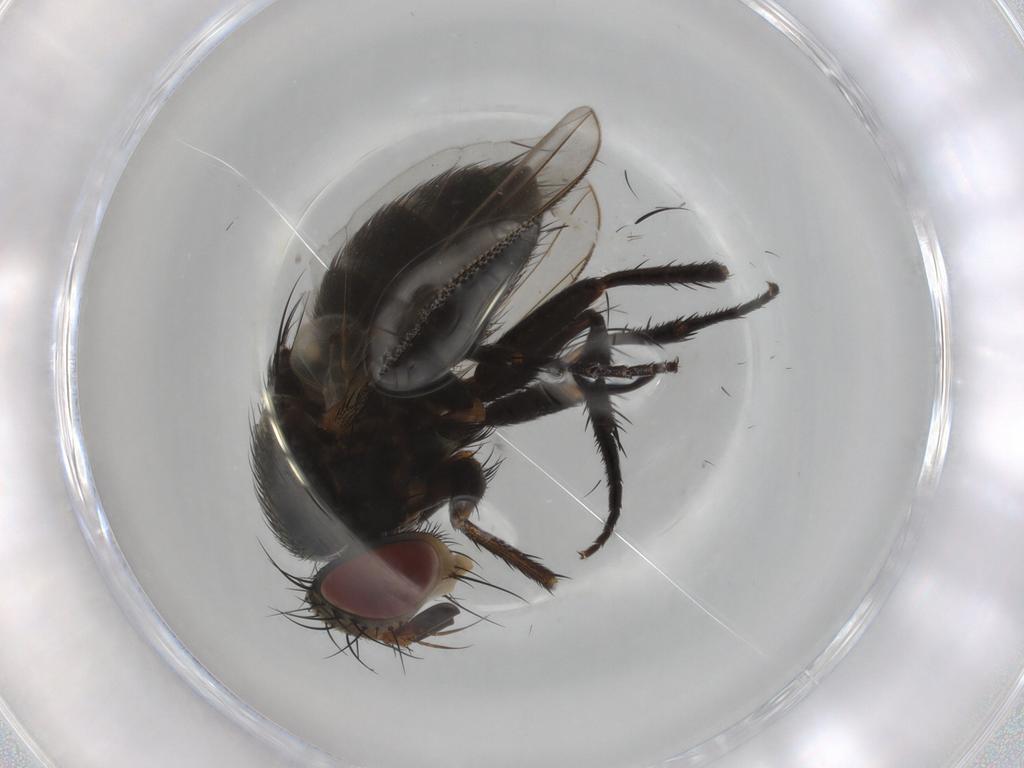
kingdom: Animalia
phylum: Arthropoda
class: Insecta
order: Diptera
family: Tachinidae
